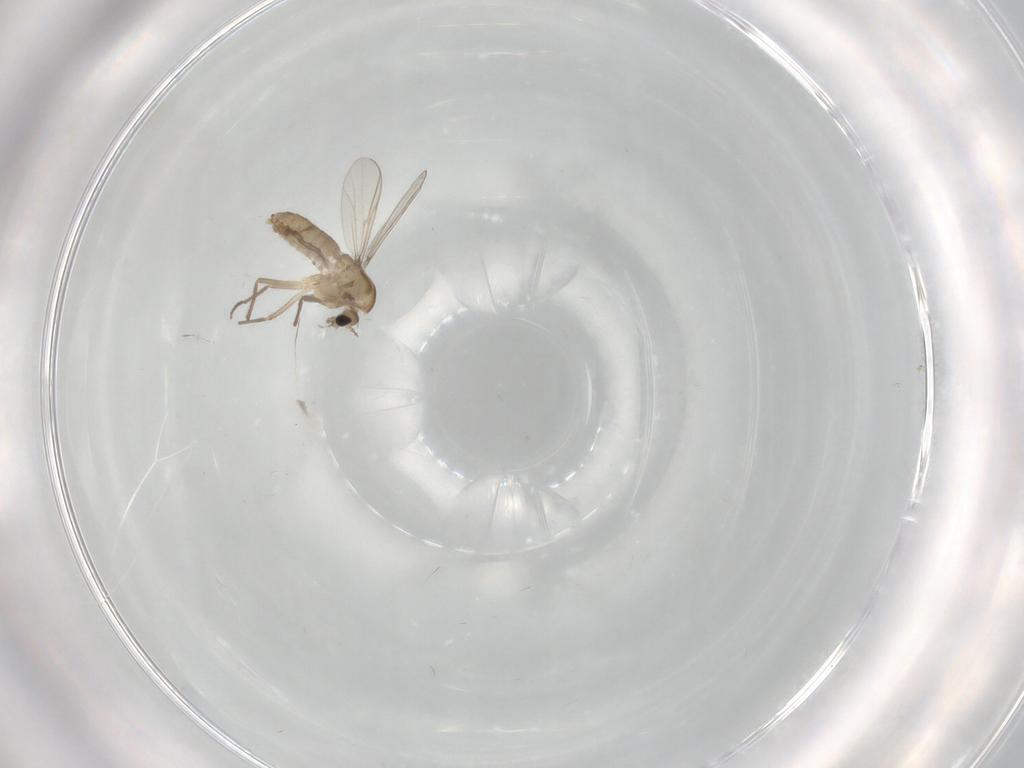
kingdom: Animalia
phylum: Arthropoda
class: Insecta
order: Diptera
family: Chironomidae
